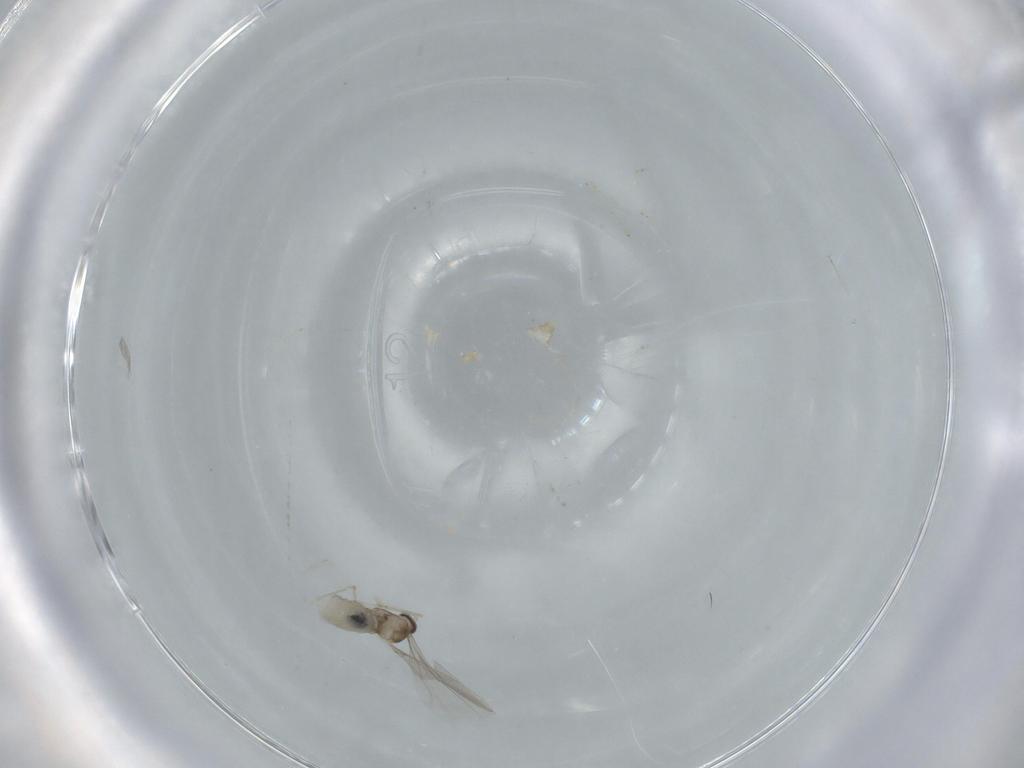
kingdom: Animalia
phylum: Arthropoda
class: Insecta
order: Diptera
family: Cecidomyiidae
